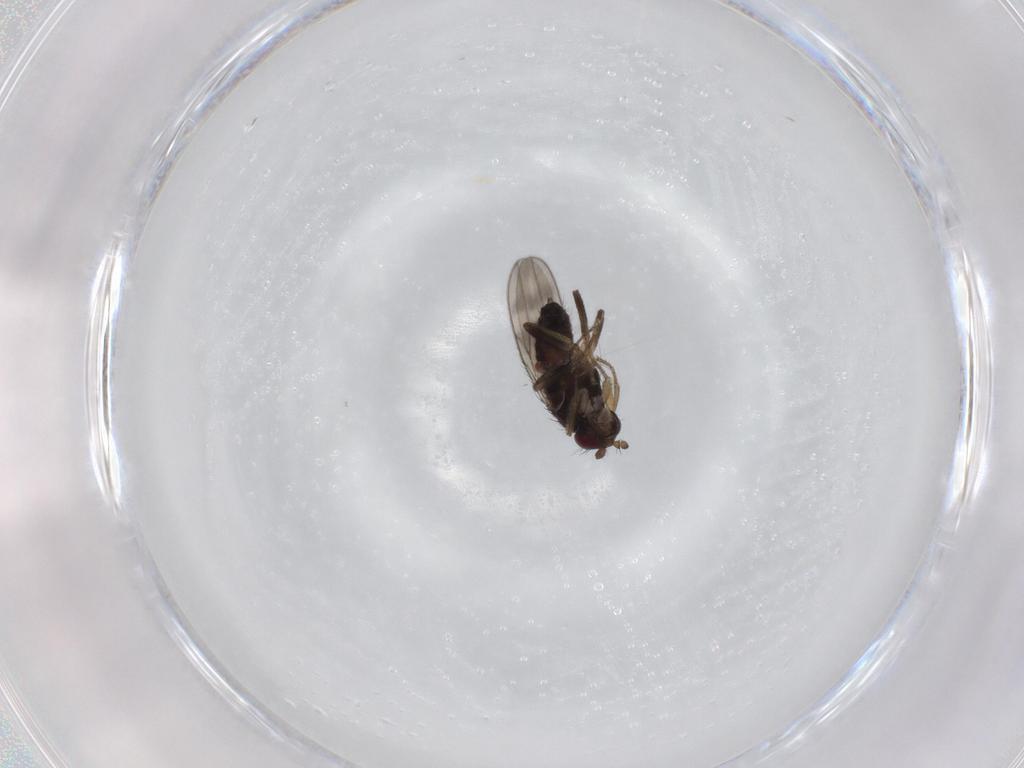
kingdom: Animalia
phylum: Arthropoda
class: Insecta
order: Diptera
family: Sphaeroceridae
